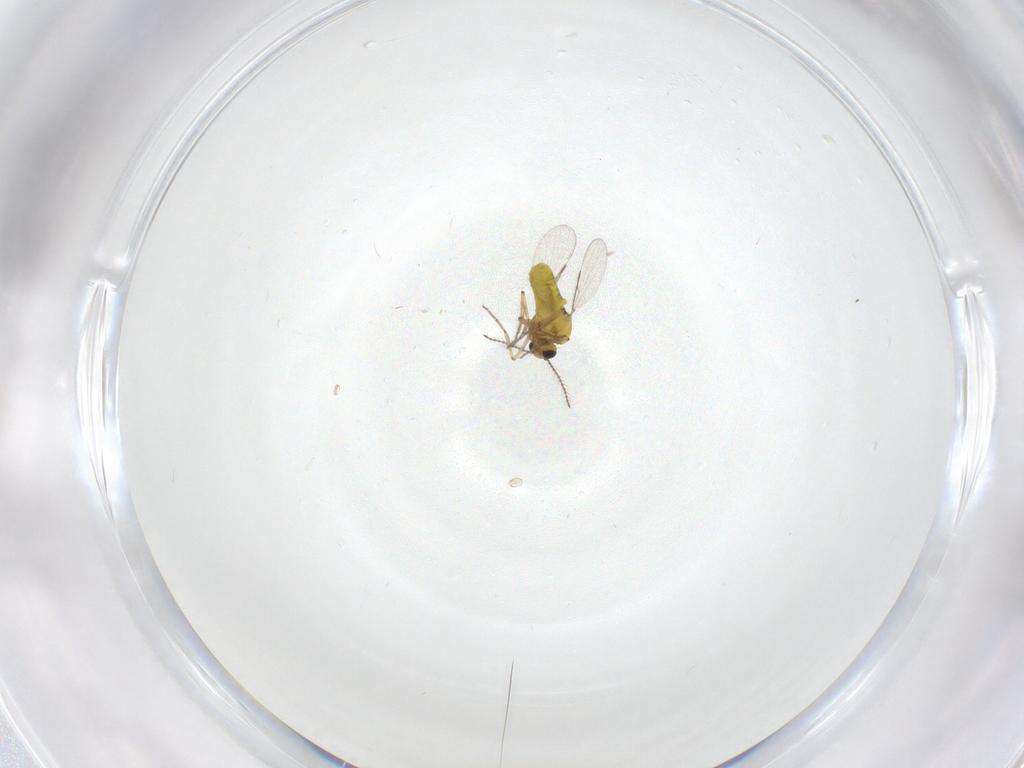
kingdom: Animalia
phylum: Arthropoda
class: Insecta
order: Diptera
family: Ceratopogonidae
